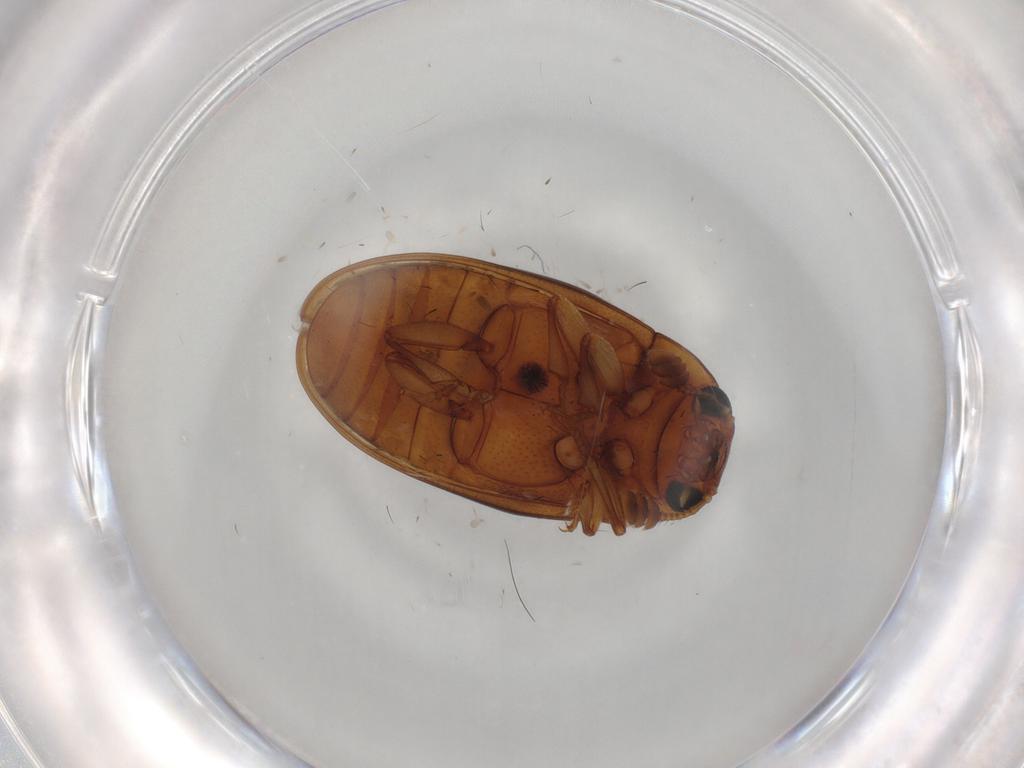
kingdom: Animalia
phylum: Arthropoda
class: Insecta
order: Coleoptera
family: Erotylidae
